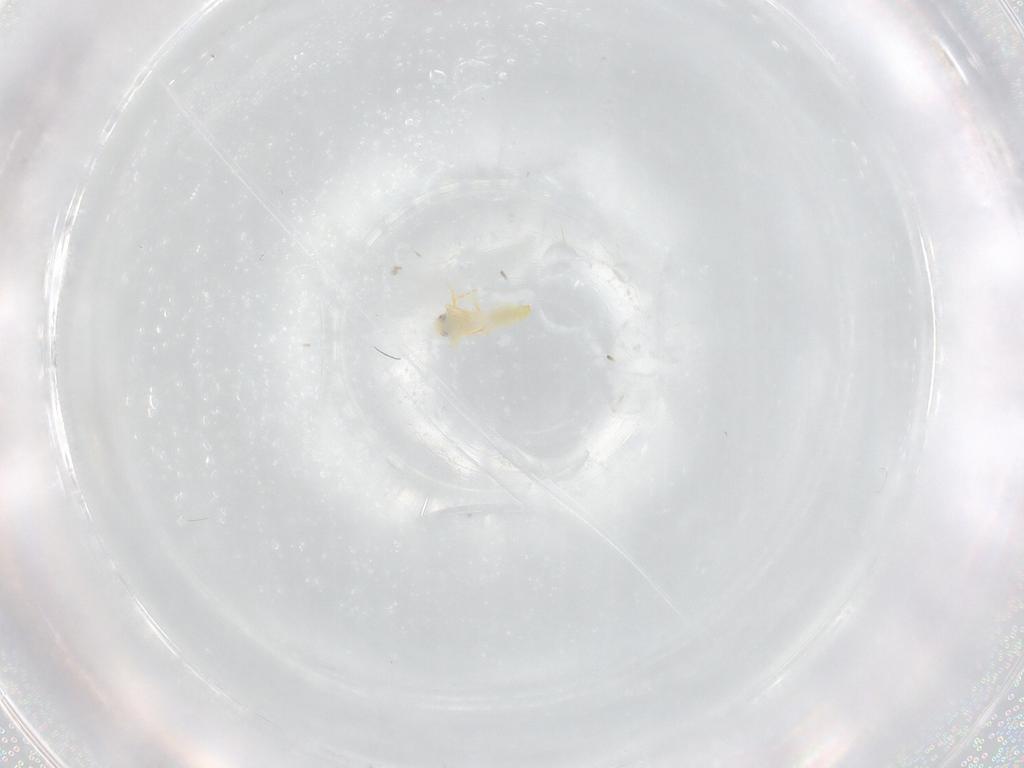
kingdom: Animalia
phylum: Arthropoda
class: Insecta
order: Hemiptera
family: Aleyrodidae
